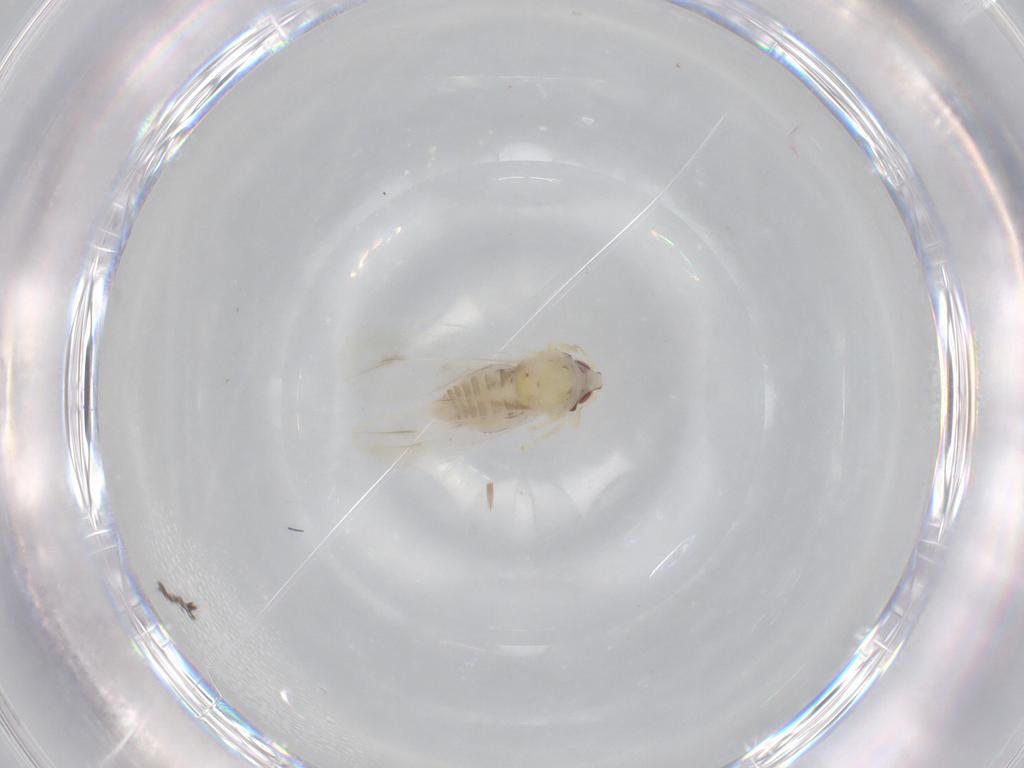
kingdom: Animalia
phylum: Arthropoda
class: Insecta
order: Hemiptera
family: Aleyrodidae
